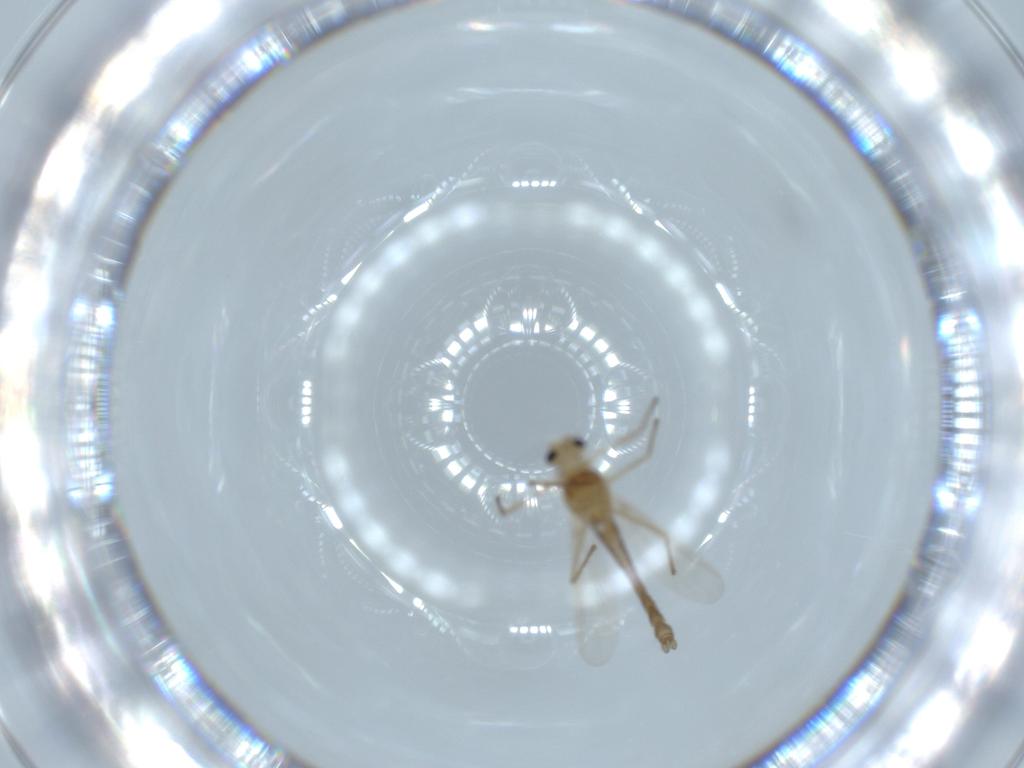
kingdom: Animalia
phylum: Arthropoda
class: Insecta
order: Diptera
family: Chironomidae
